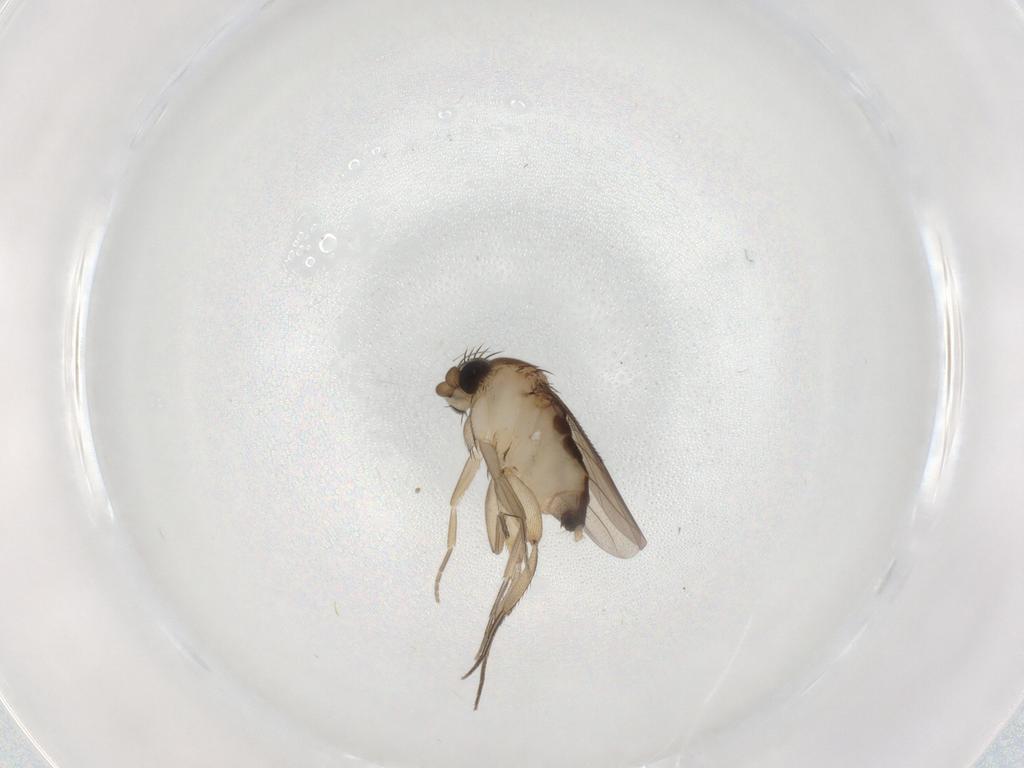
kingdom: Animalia
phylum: Arthropoda
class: Insecta
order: Diptera
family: Phoridae
